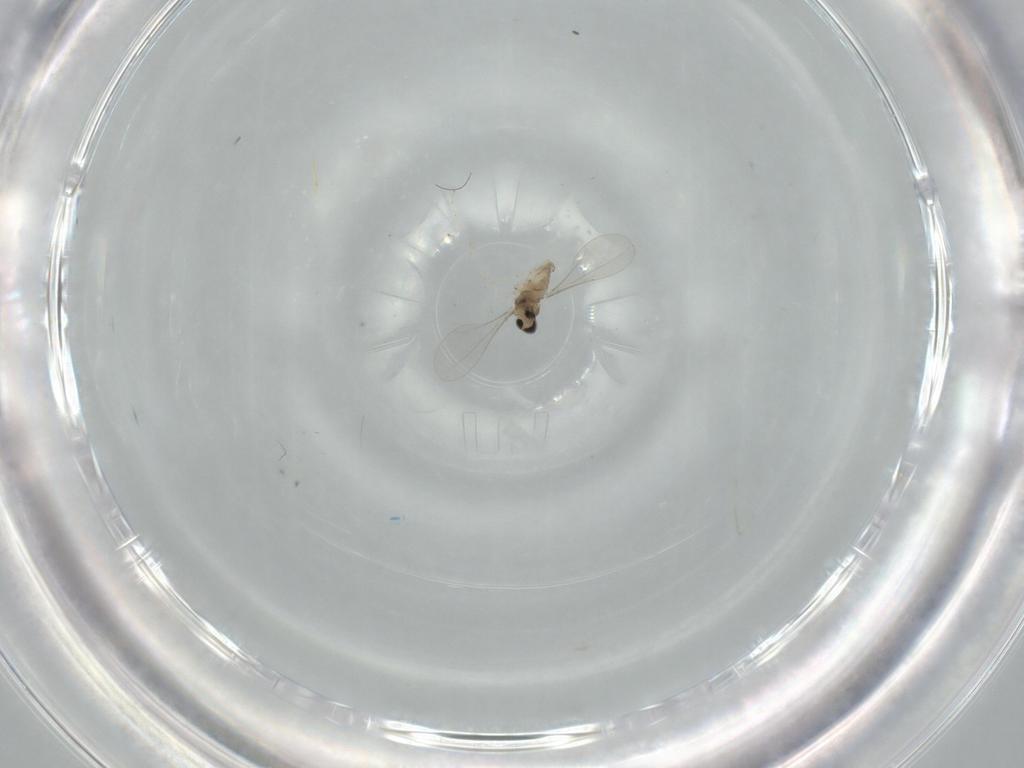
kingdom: Animalia
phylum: Arthropoda
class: Insecta
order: Diptera
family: Cecidomyiidae
